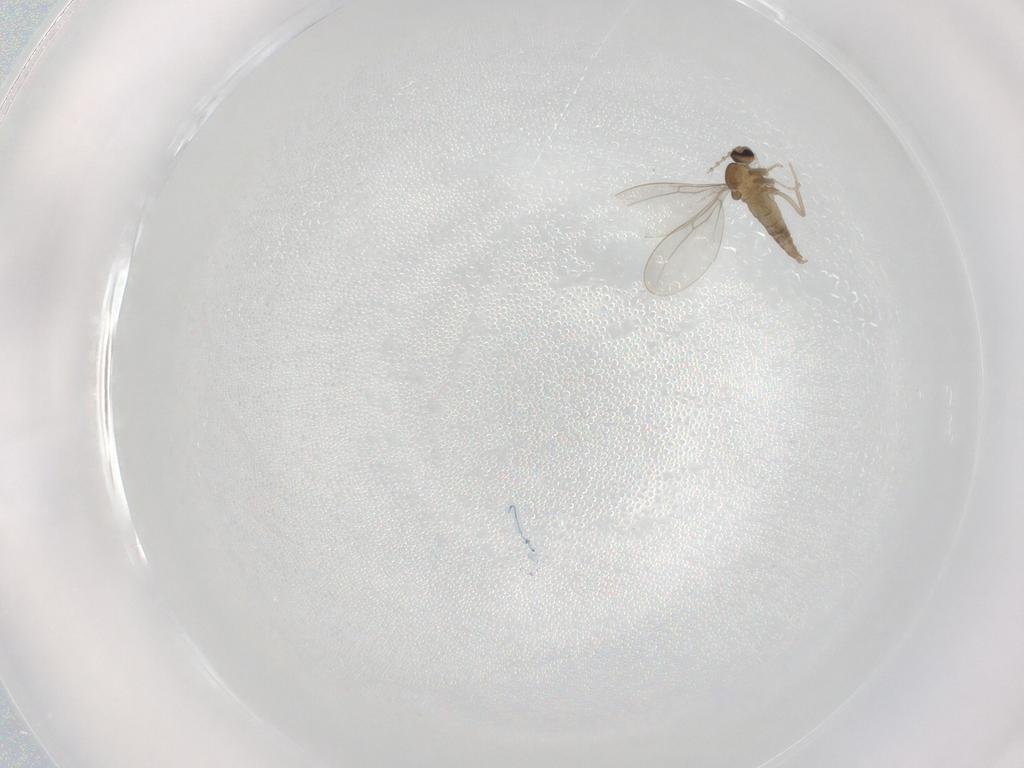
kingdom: Animalia
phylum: Arthropoda
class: Insecta
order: Diptera
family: Ceratopogonidae
